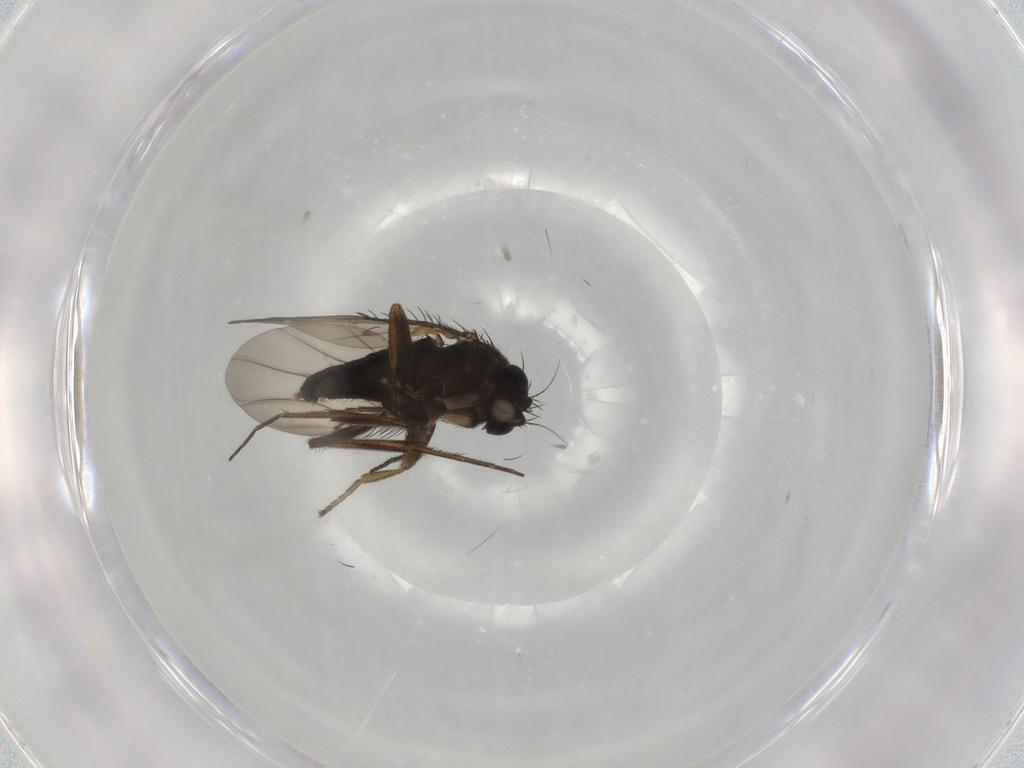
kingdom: Animalia
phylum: Arthropoda
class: Insecta
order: Diptera
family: Phoridae
